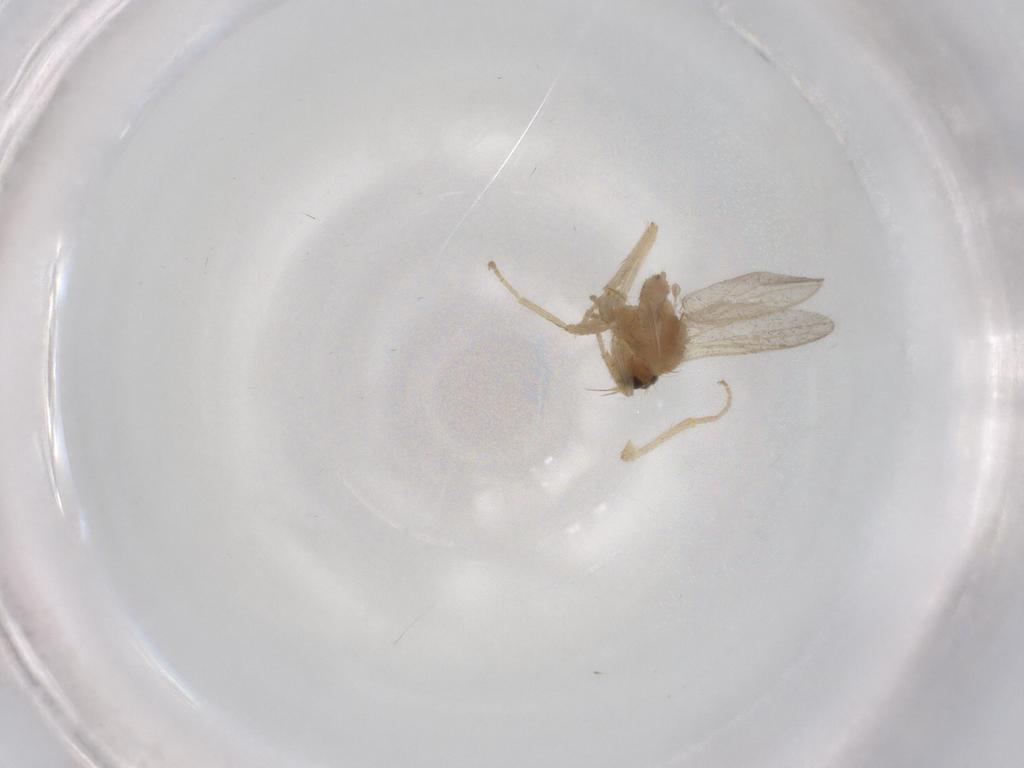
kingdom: Animalia
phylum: Arthropoda
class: Insecta
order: Diptera
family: Hybotidae
